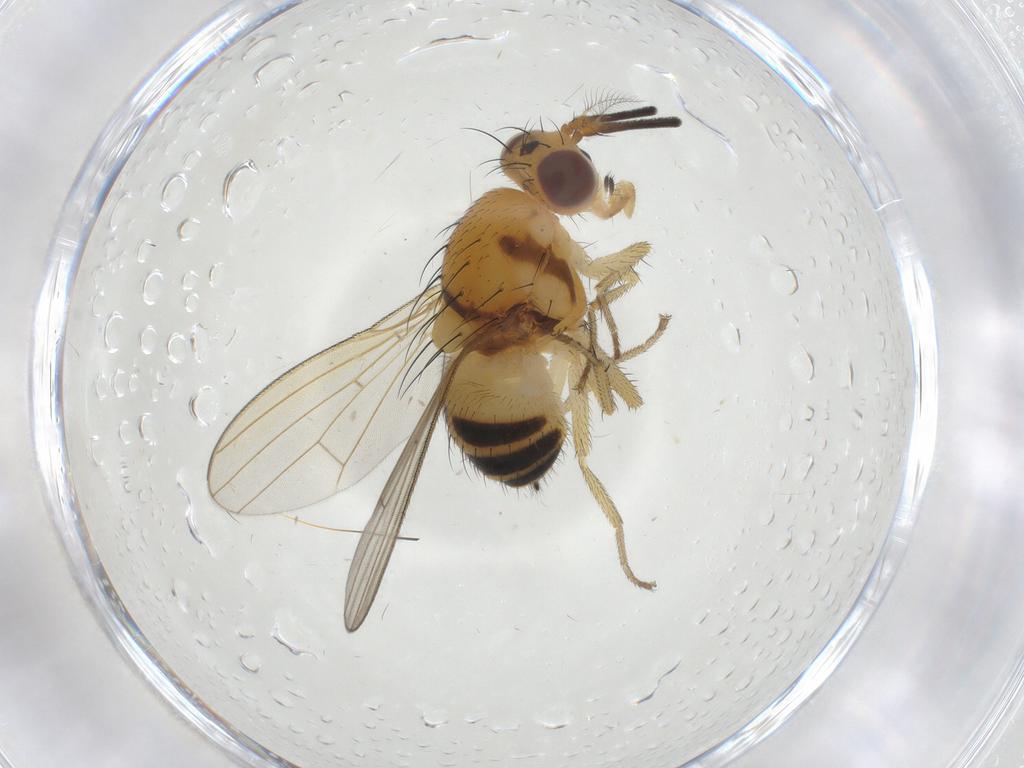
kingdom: Animalia
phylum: Arthropoda
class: Insecta
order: Diptera
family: Lauxaniidae
